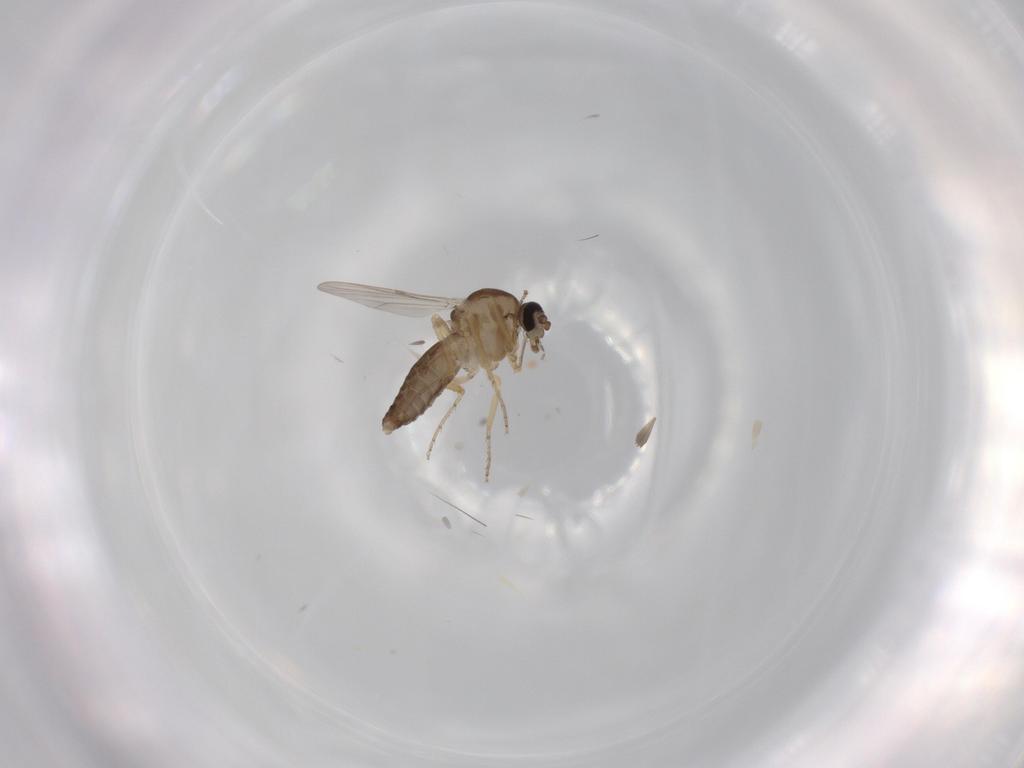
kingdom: Animalia
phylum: Arthropoda
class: Insecta
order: Diptera
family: Ceratopogonidae
